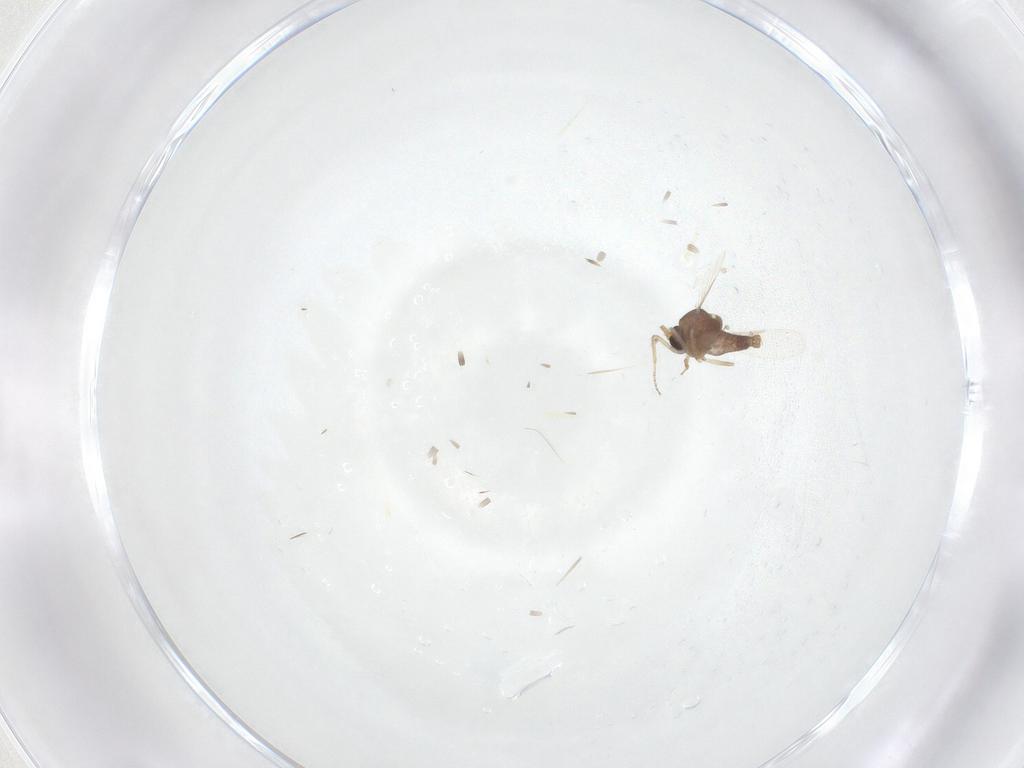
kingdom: Animalia
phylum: Arthropoda
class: Insecta
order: Diptera
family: Ceratopogonidae
